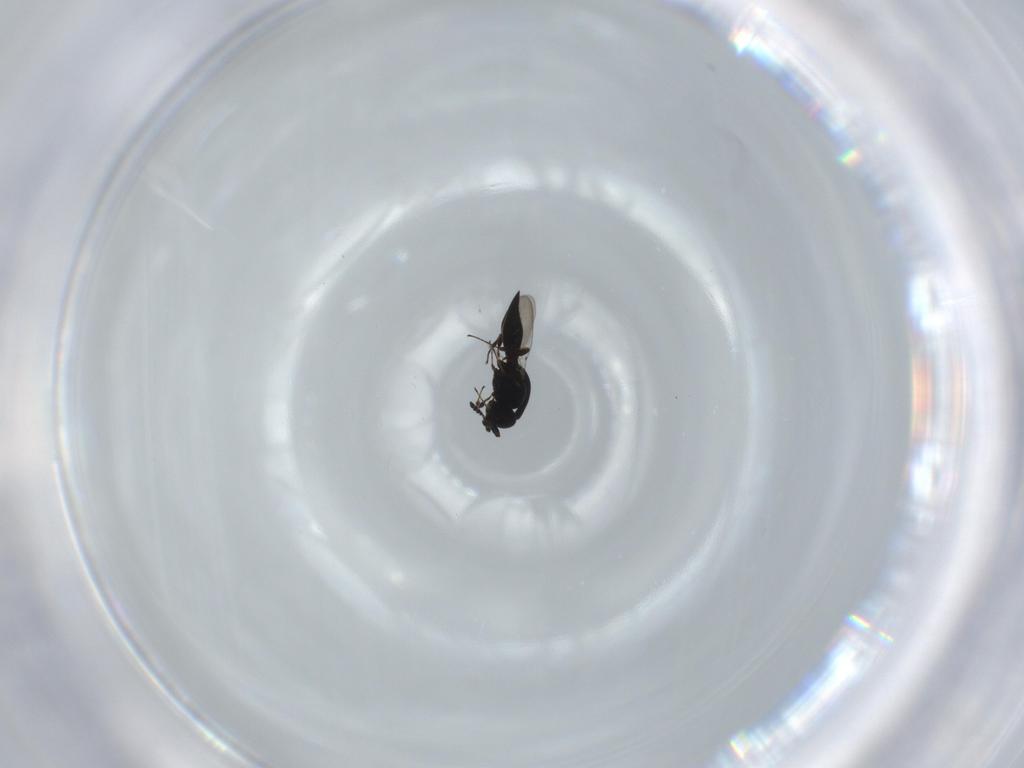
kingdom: Animalia
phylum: Arthropoda
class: Insecta
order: Hymenoptera
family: Platygastridae
